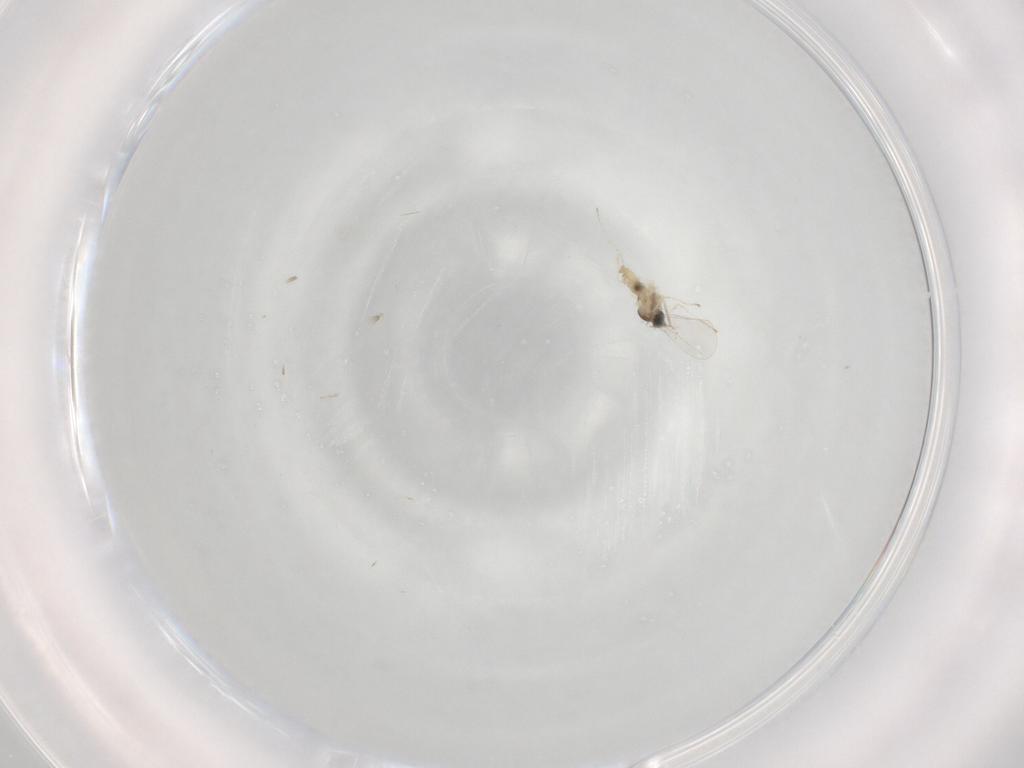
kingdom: Animalia
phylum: Arthropoda
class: Insecta
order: Diptera
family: Cecidomyiidae
